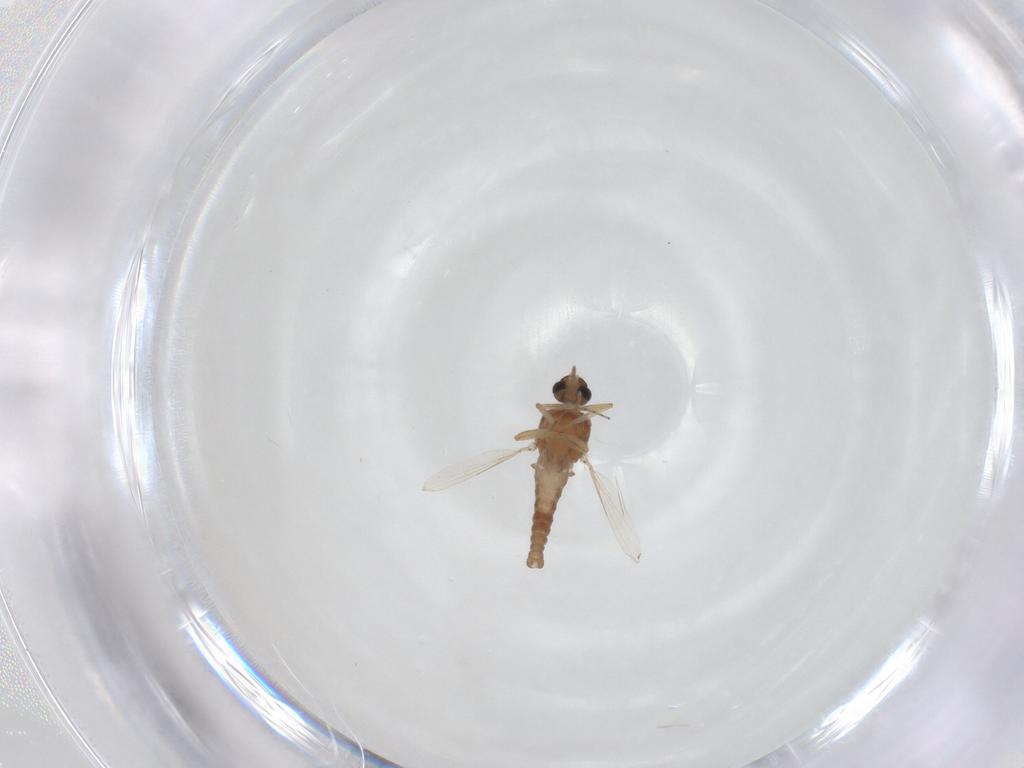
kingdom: Animalia
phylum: Arthropoda
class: Insecta
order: Diptera
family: Ceratopogonidae
